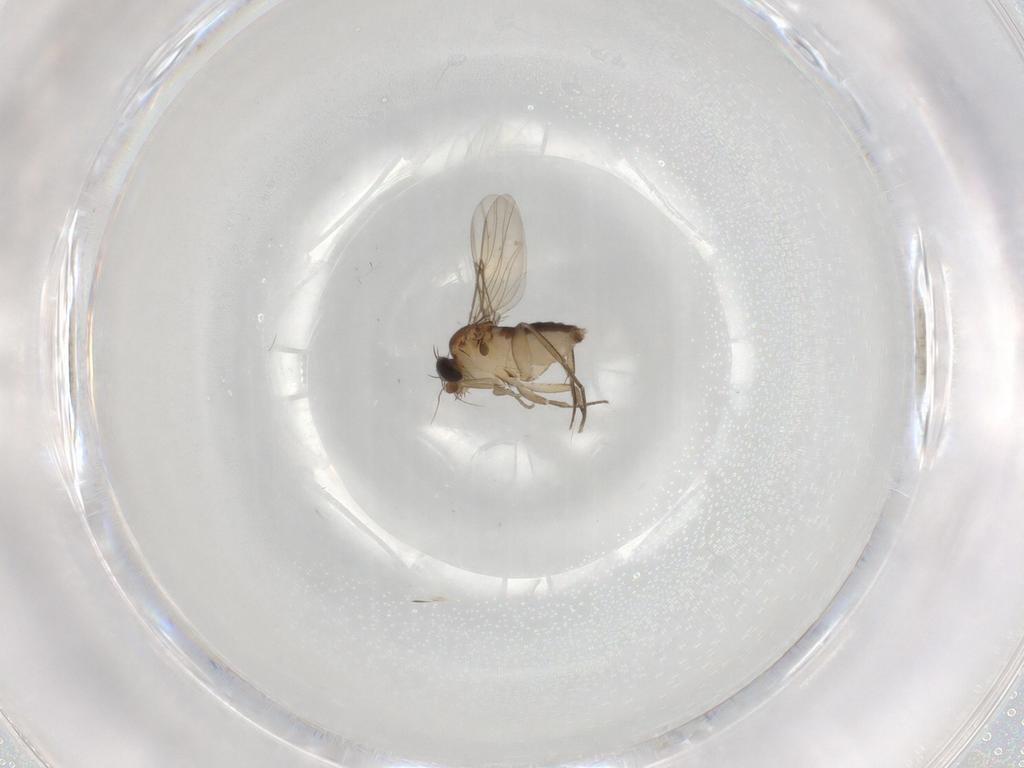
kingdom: Animalia
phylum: Arthropoda
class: Insecta
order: Diptera
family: Phoridae
